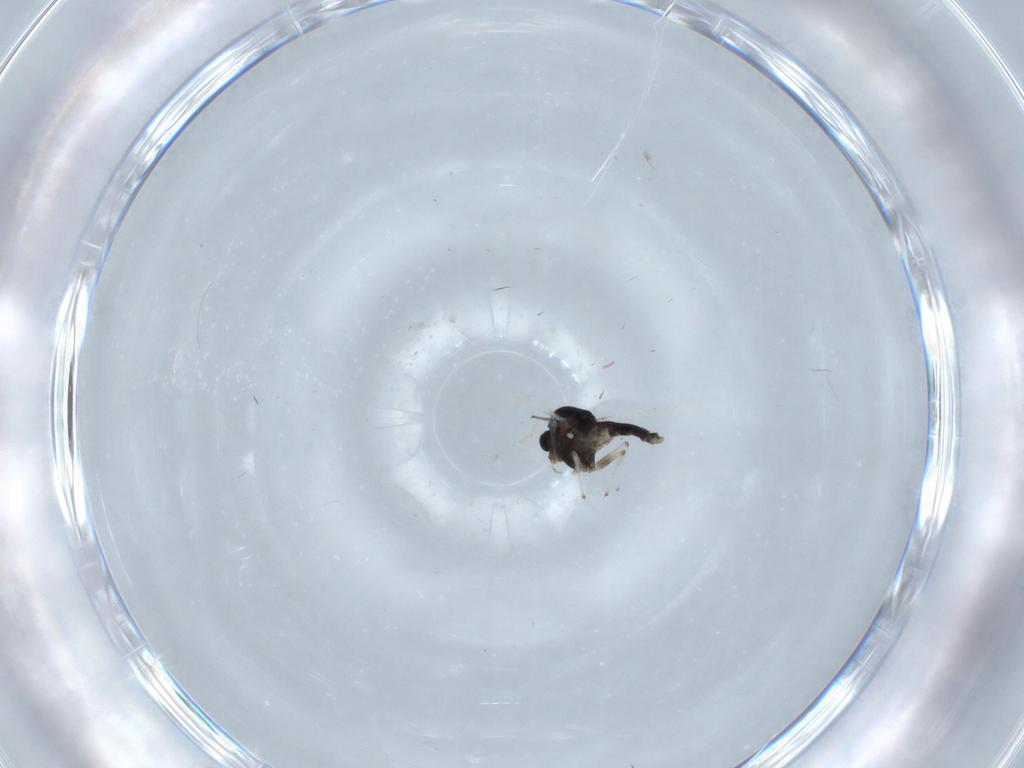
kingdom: Animalia
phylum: Arthropoda
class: Insecta
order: Diptera
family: Chironomidae
